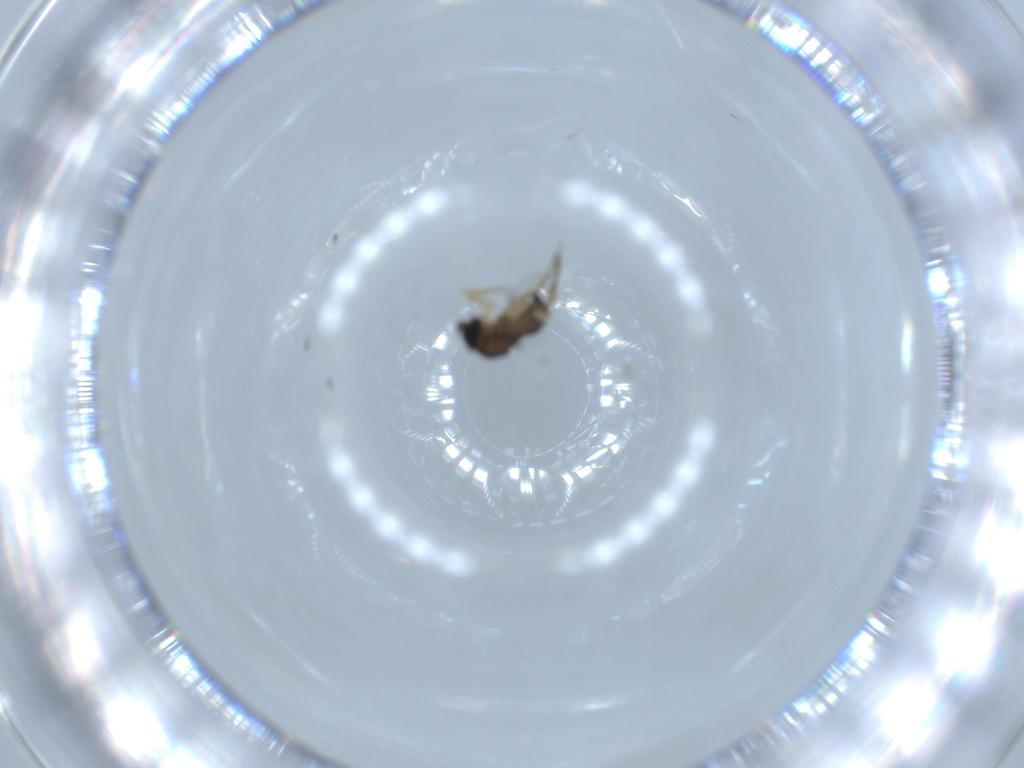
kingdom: Animalia
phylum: Arthropoda
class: Insecta
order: Diptera
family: Phoridae
